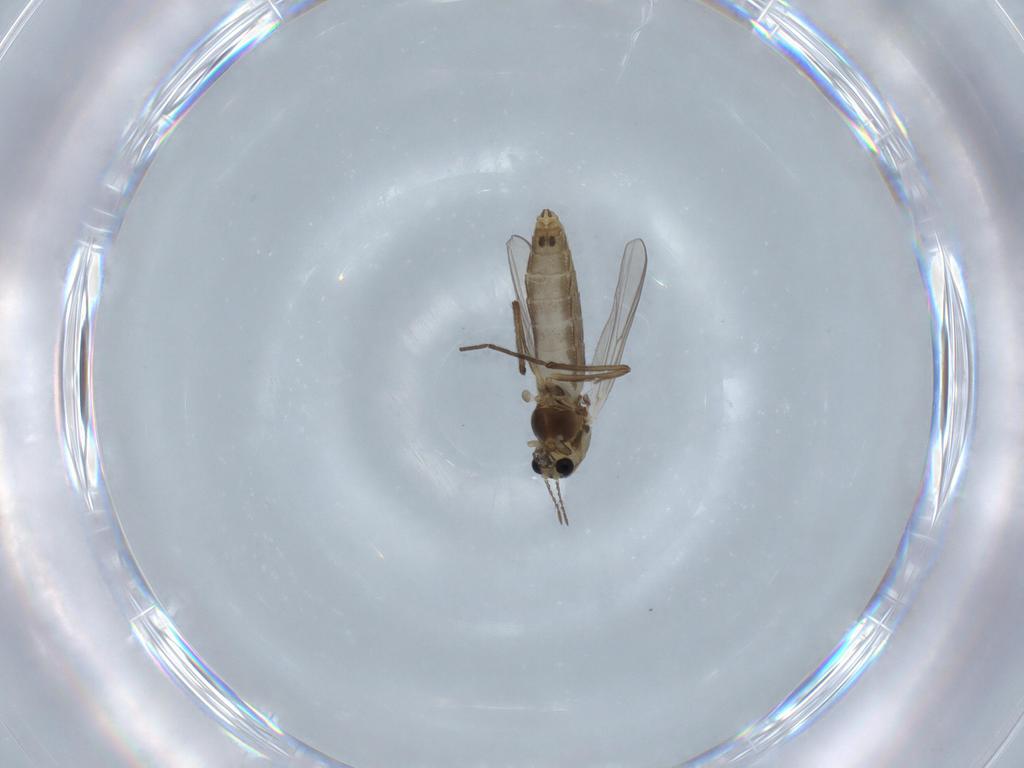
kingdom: Animalia
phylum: Arthropoda
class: Insecta
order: Diptera
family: Chironomidae
